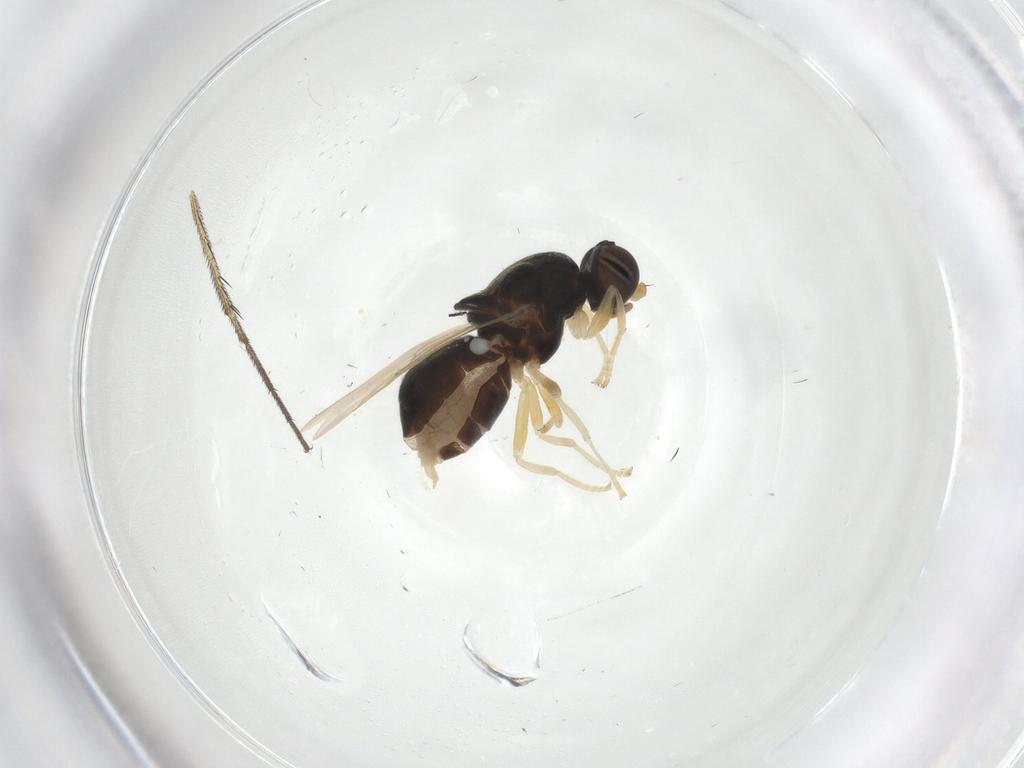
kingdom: Animalia
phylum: Arthropoda
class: Insecta
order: Diptera
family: Stratiomyidae
